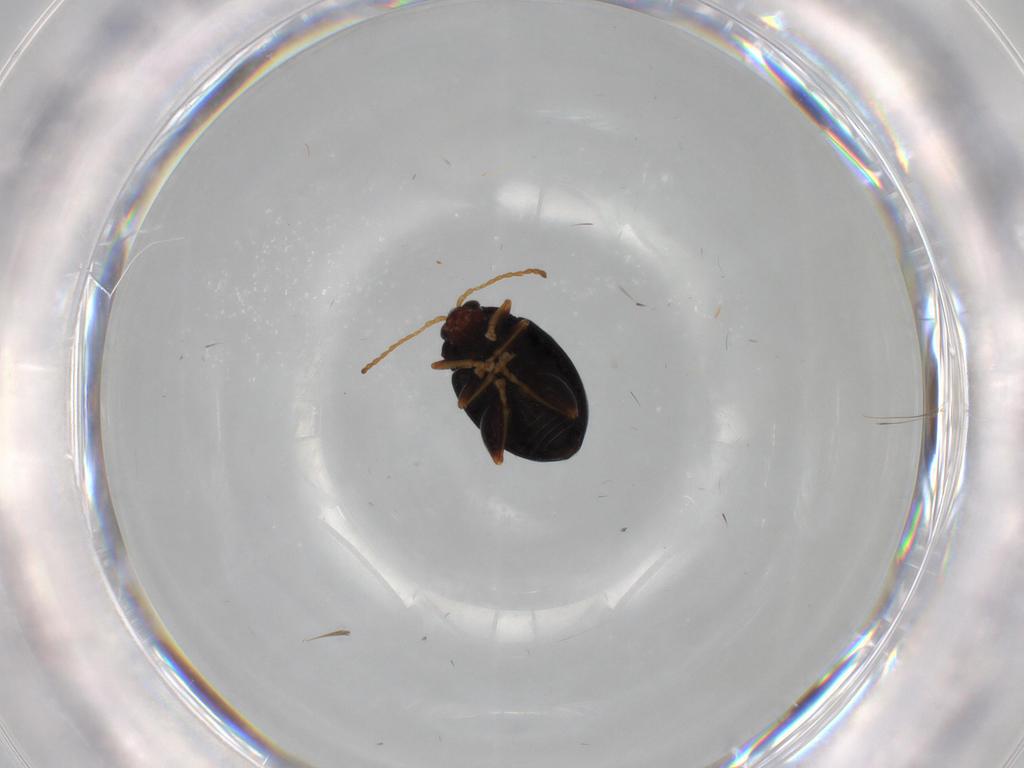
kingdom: Animalia
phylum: Arthropoda
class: Insecta
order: Coleoptera
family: Chrysomelidae
